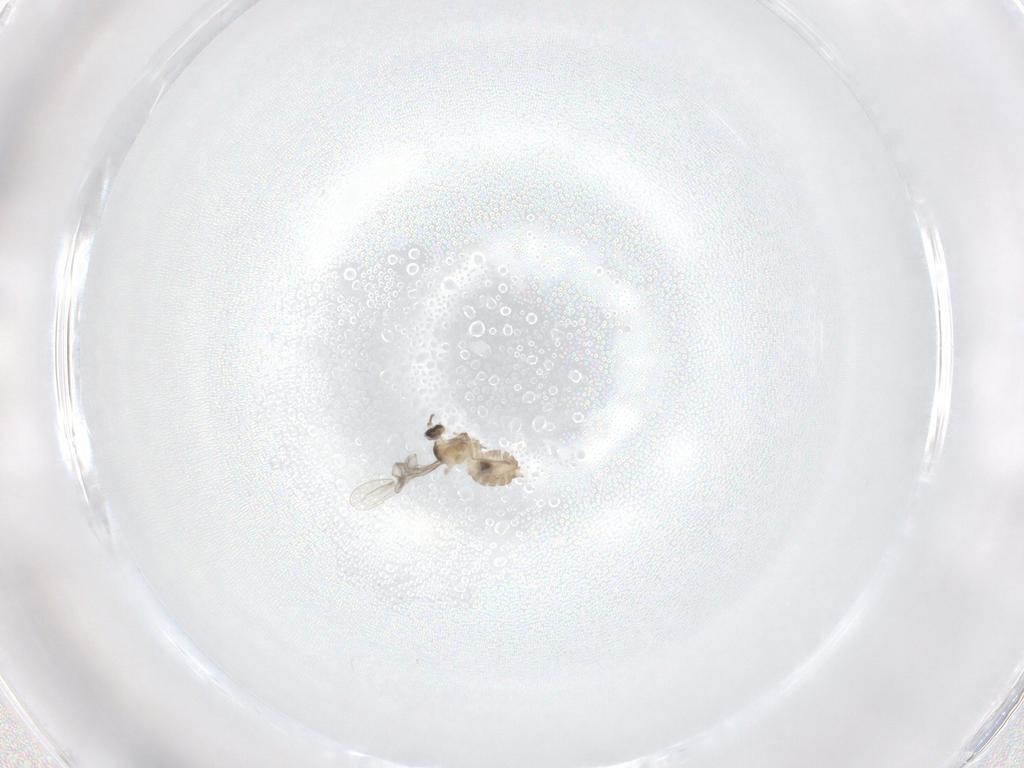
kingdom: Animalia
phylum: Arthropoda
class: Insecta
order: Diptera
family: Cecidomyiidae
